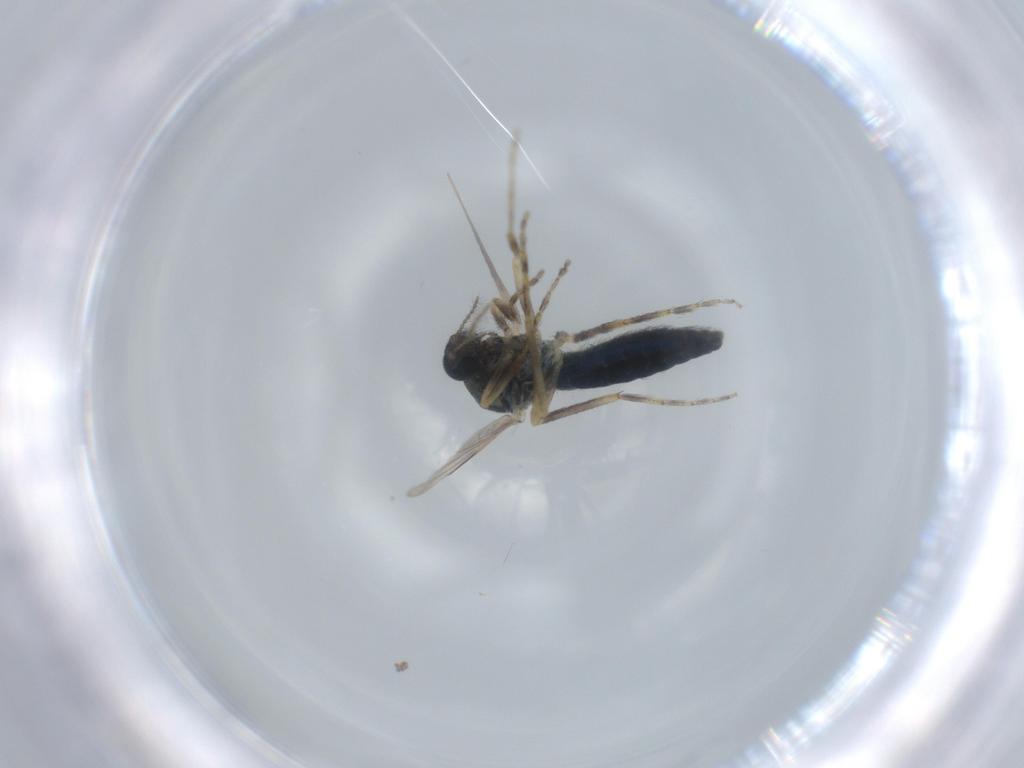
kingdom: Animalia
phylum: Arthropoda
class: Insecta
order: Diptera
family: Ceratopogonidae
